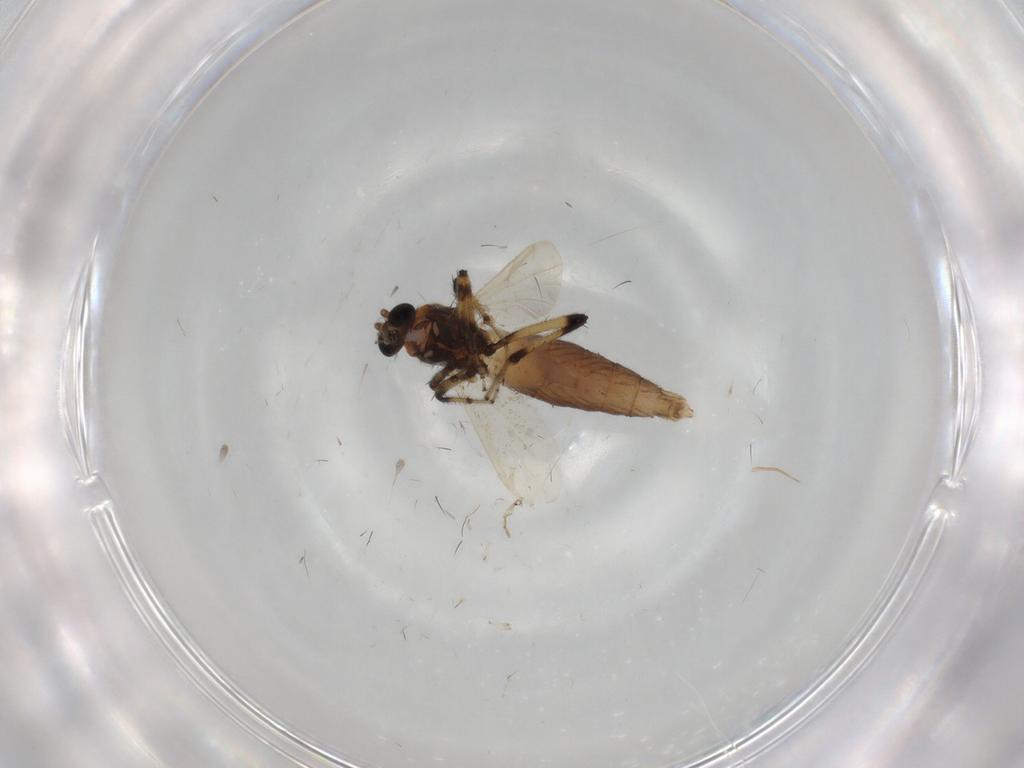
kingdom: Animalia
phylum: Arthropoda
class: Insecta
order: Diptera
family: Ceratopogonidae
